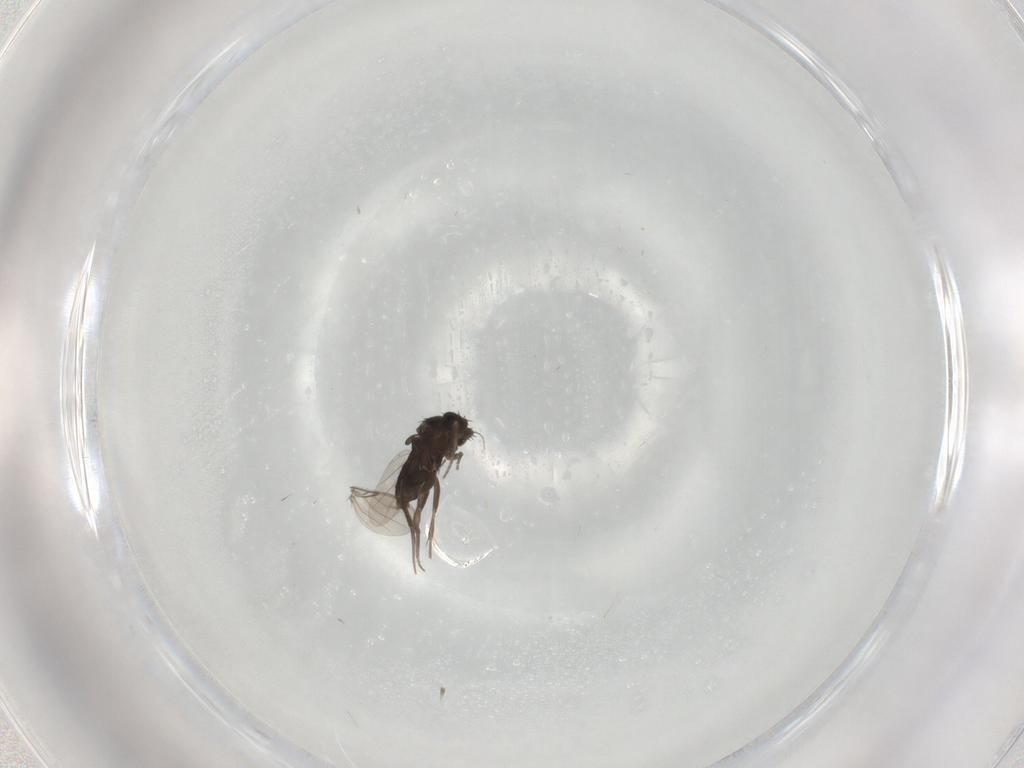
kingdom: Animalia
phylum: Arthropoda
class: Insecta
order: Diptera
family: Phoridae
